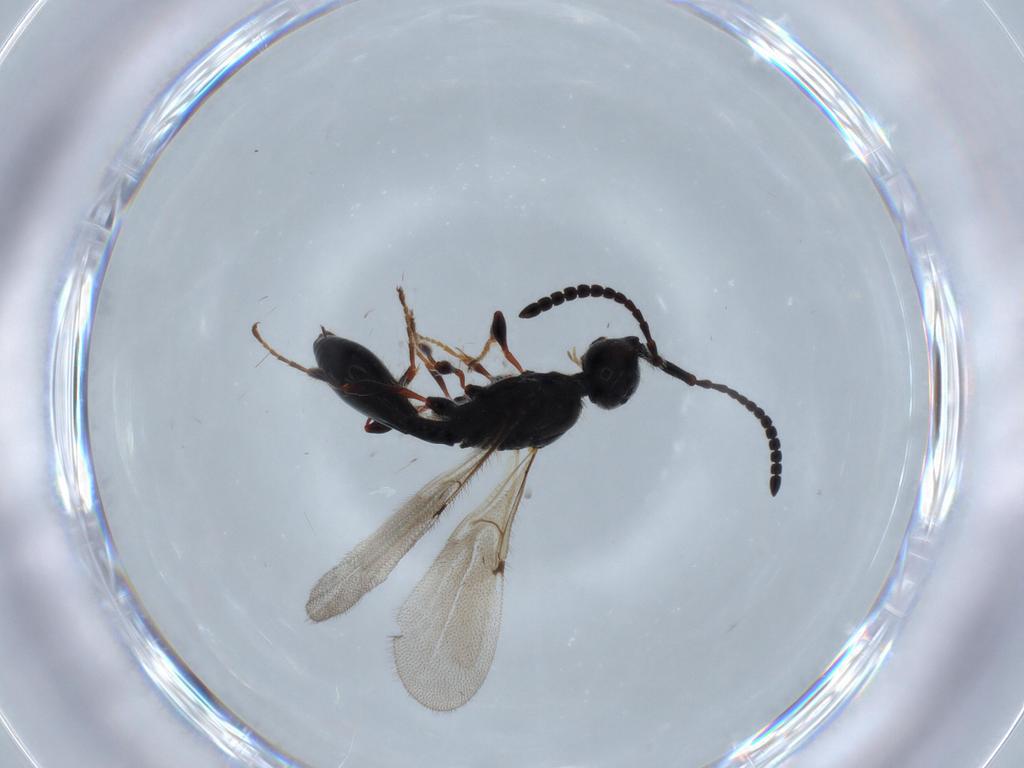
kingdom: Animalia
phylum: Arthropoda
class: Insecta
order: Hymenoptera
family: Diapriidae
